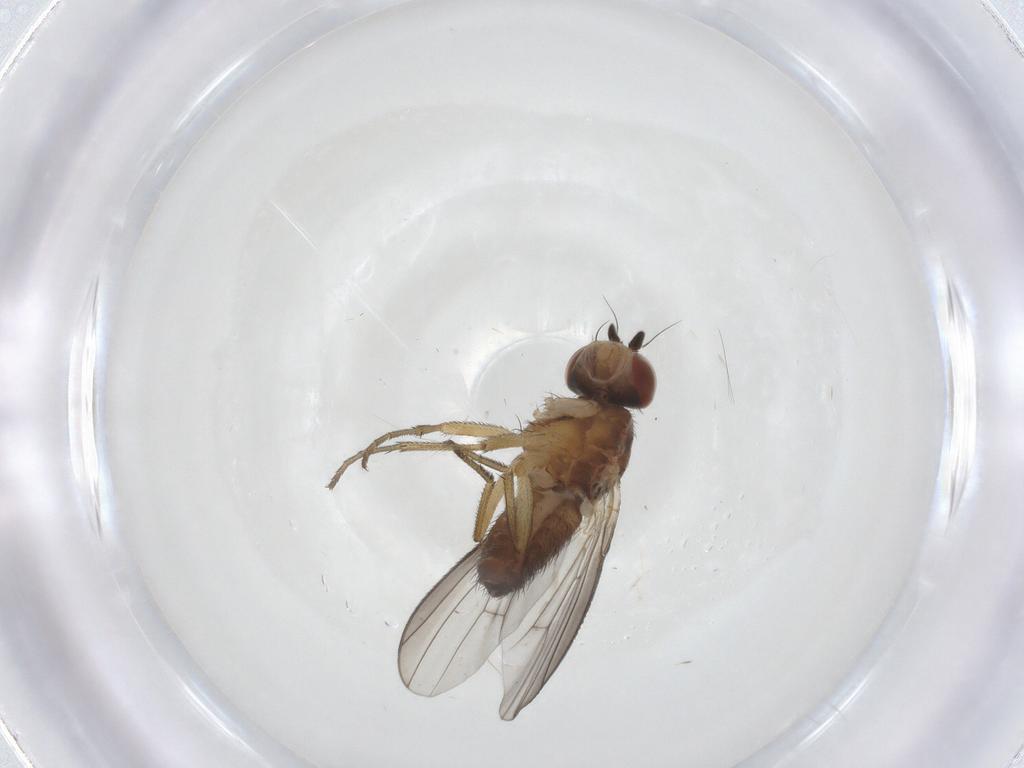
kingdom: Animalia
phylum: Arthropoda
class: Insecta
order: Diptera
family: Heleomyzidae
